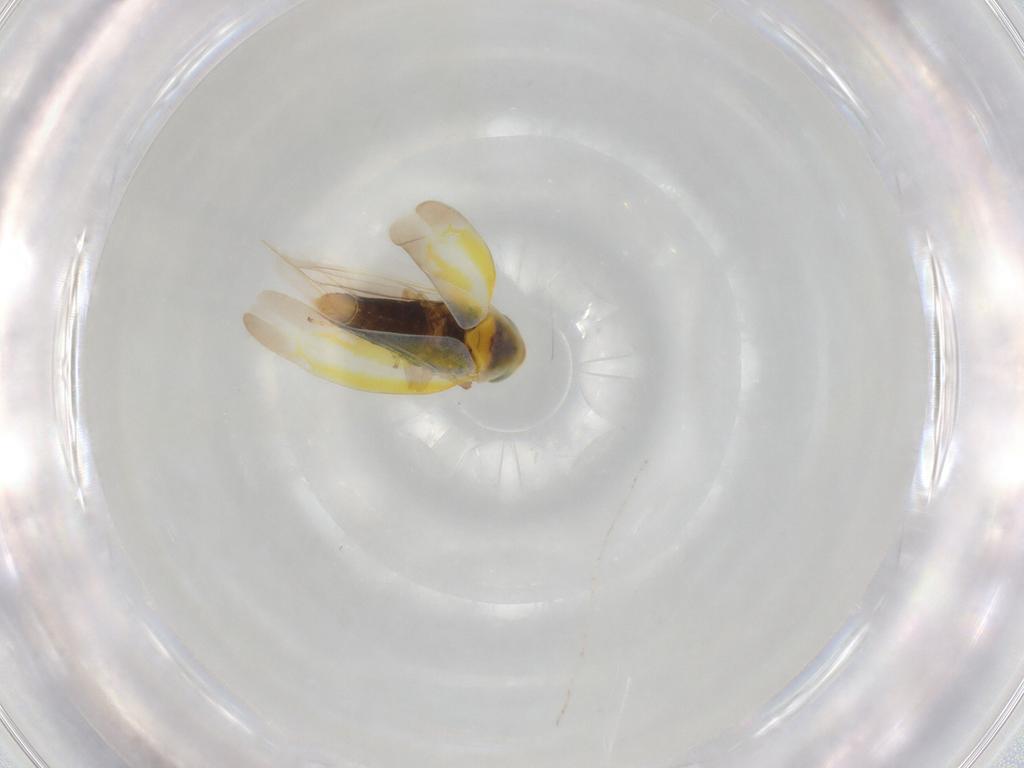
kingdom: Animalia
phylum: Arthropoda
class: Insecta
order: Hemiptera
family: Cicadellidae
